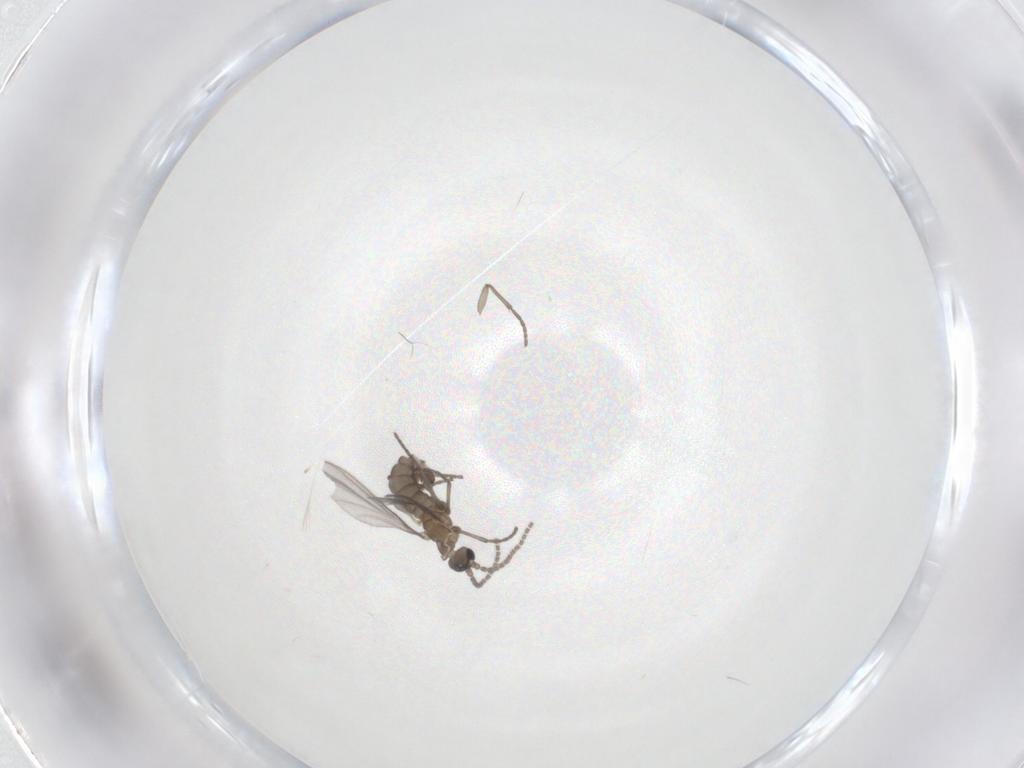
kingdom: Animalia
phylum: Arthropoda
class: Insecta
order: Diptera
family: Sciaridae
